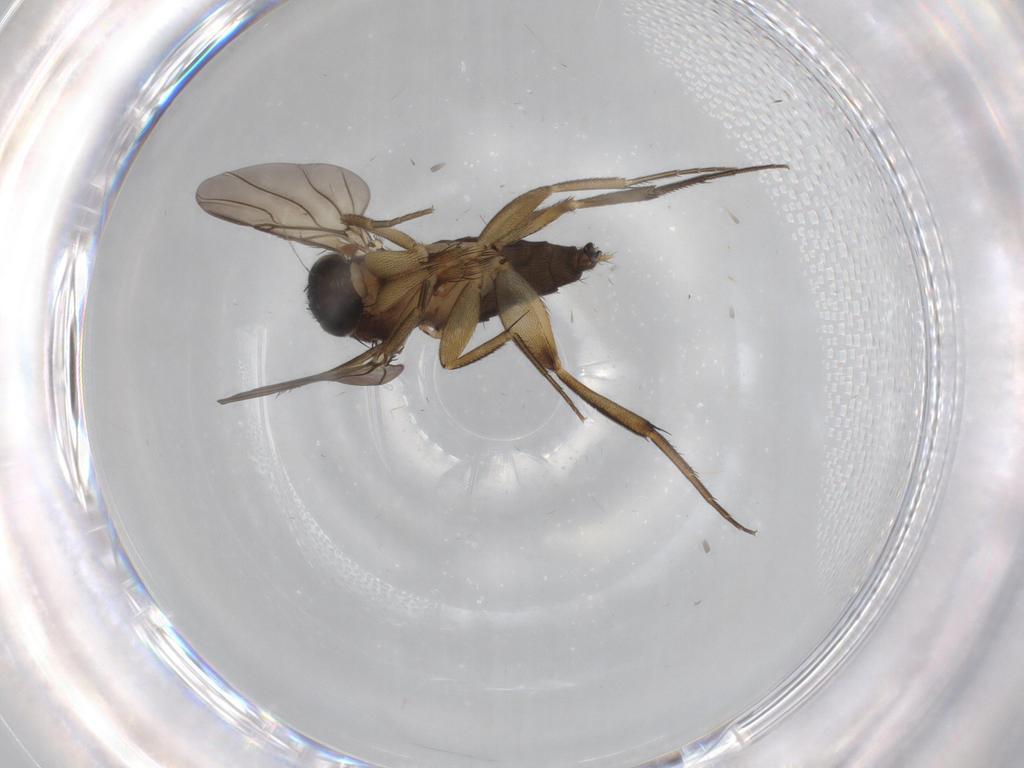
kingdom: Animalia
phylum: Arthropoda
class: Insecta
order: Diptera
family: Phoridae
